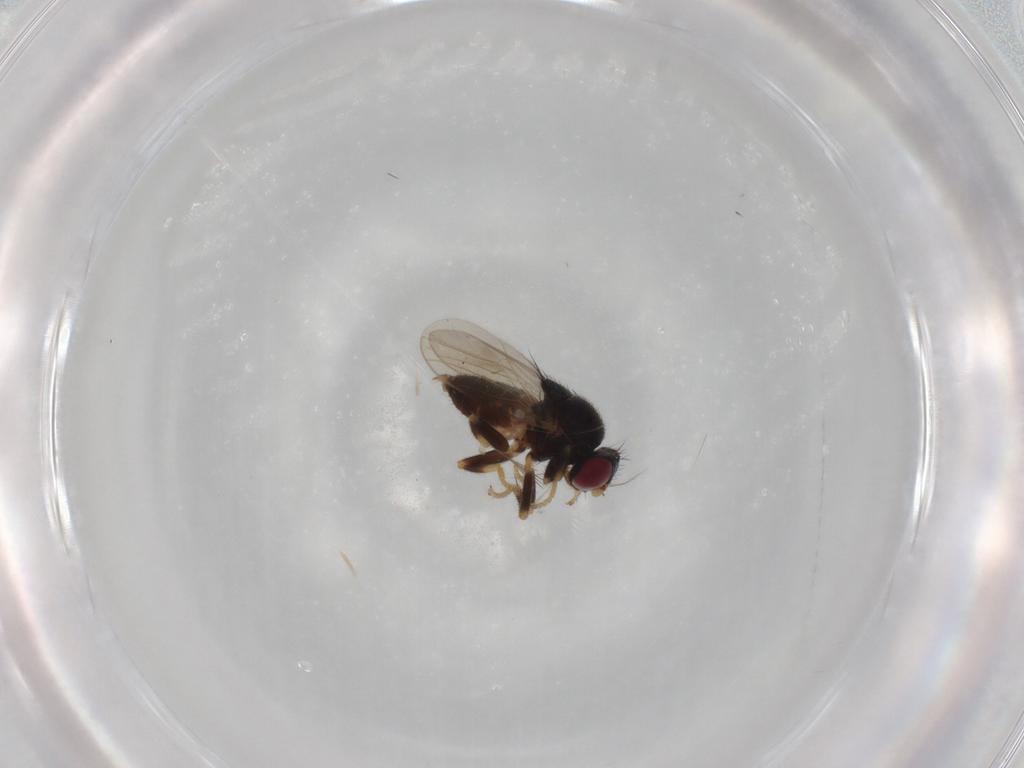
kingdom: Animalia
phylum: Arthropoda
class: Insecta
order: Diptera
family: Chloropidae
